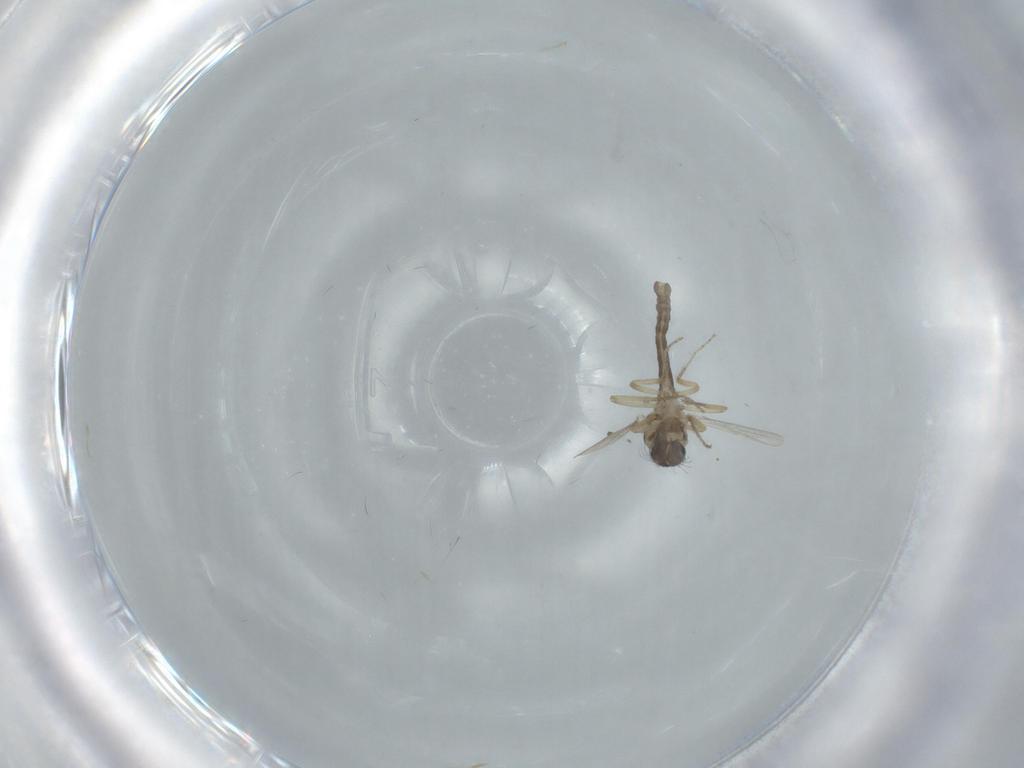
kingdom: Animalia
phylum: Arthropoda
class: Insecta
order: Diptera
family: Ceratopogonidae
